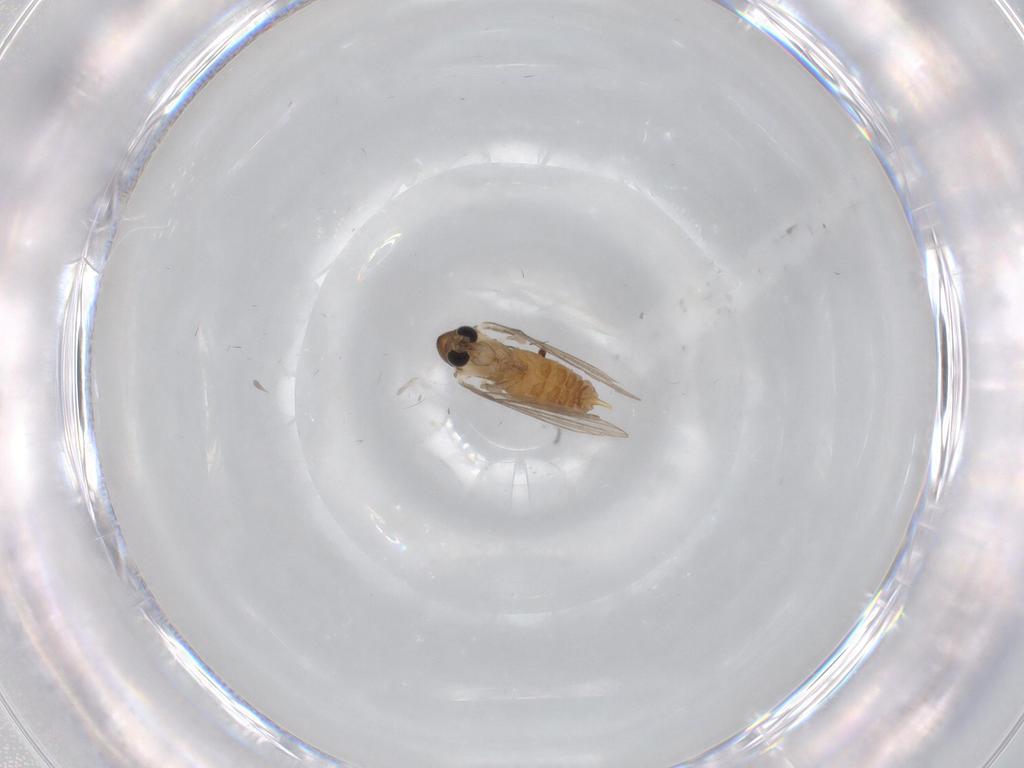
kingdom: Animalia
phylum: Arthropoda
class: Insecta
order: Diptera
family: Psychodidae
